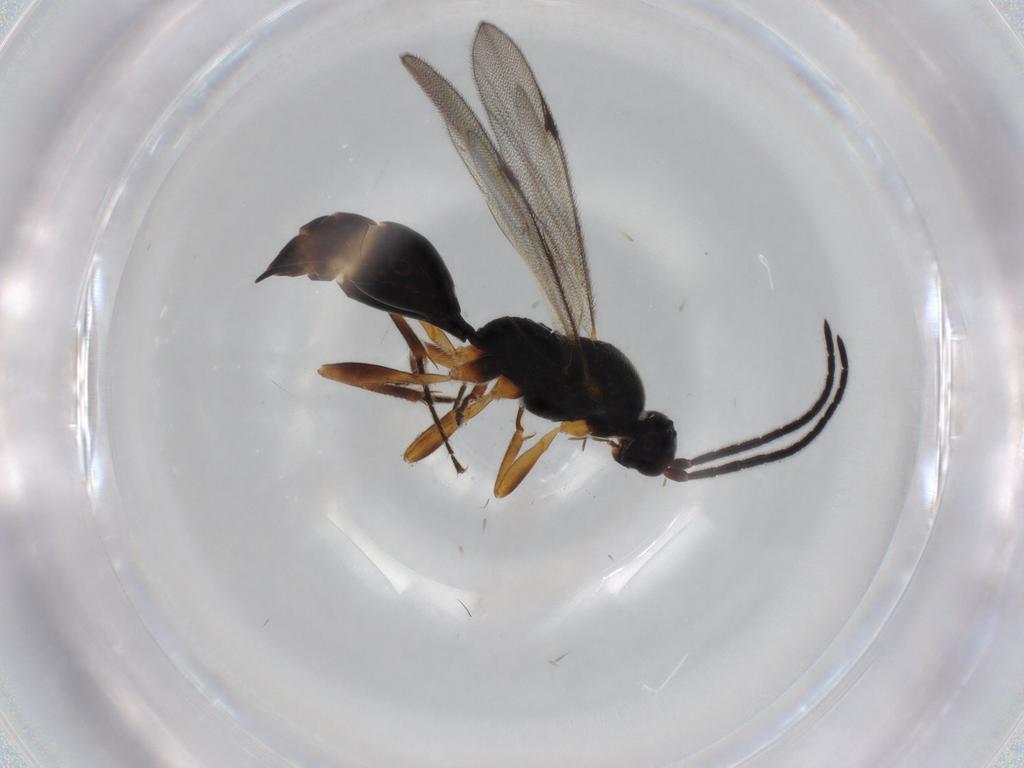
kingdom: Animalia
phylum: Arthropoda
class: Insecta
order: Hymenoptera
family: Proctotrupidae
